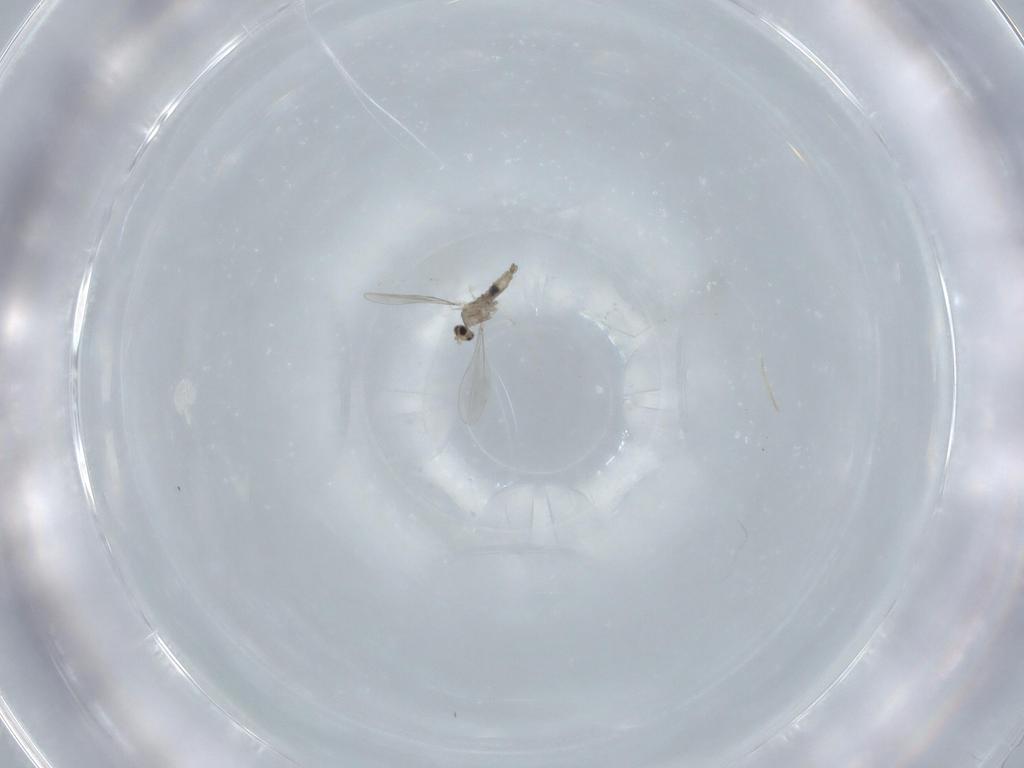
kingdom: Animalia
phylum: Arthropoda
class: Insecta
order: Diptera
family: Cecidomyiidae
